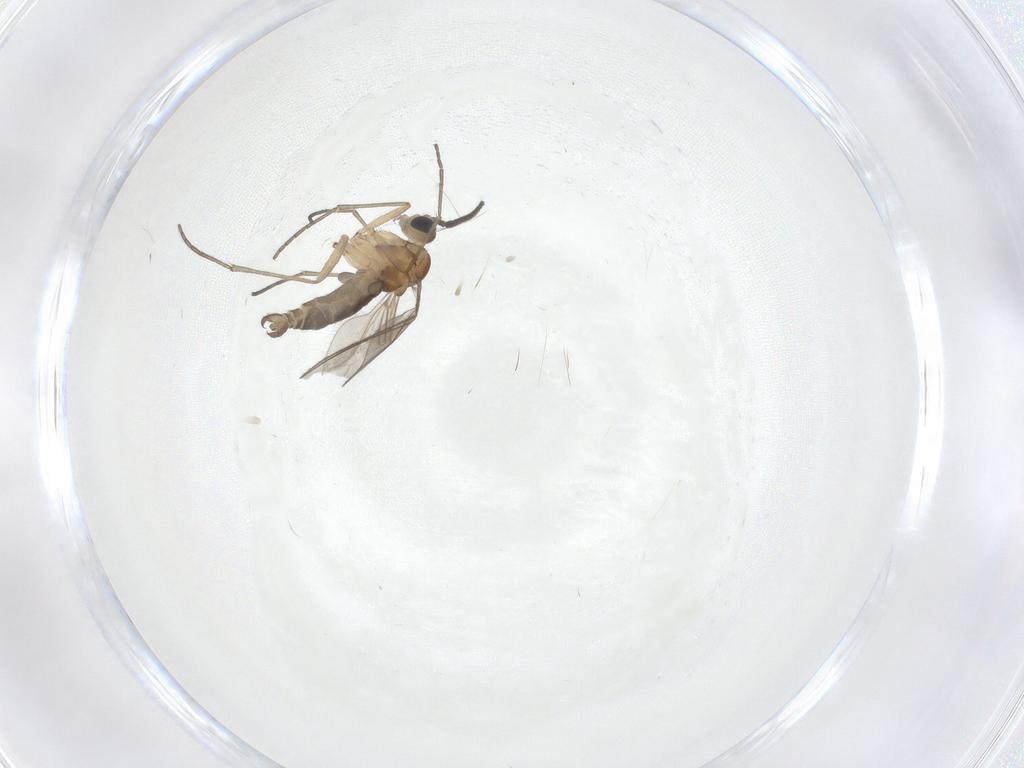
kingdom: Animalia
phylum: Arthropoda
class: Insecta
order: Diptera
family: Sciaridae
